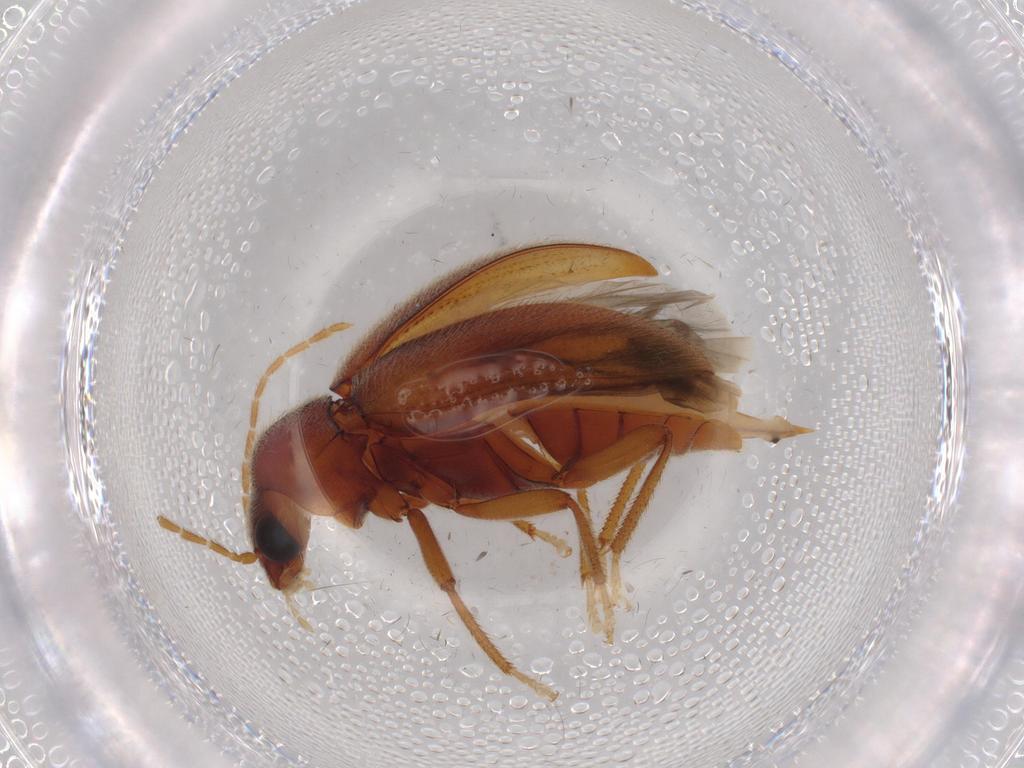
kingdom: Animalia
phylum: Arthropoda
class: Insecta
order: Coleoptera
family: Ptilodactylidae
